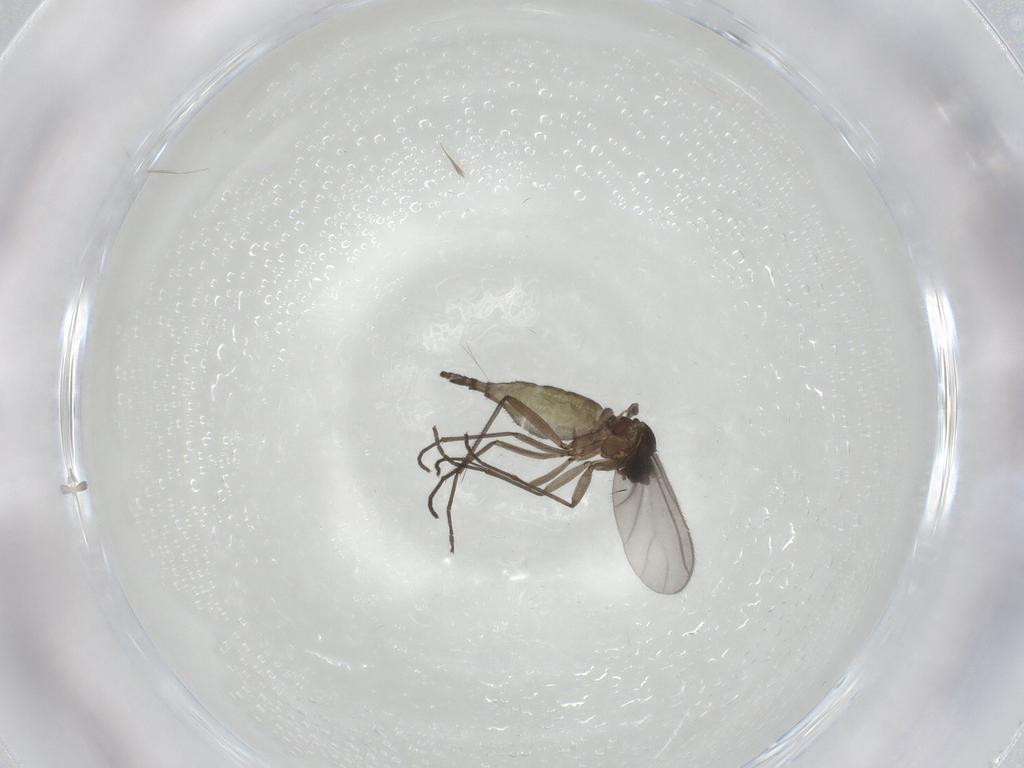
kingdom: Animalia
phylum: Arthropoda
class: Insecta
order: Diptera
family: Sciaridae
